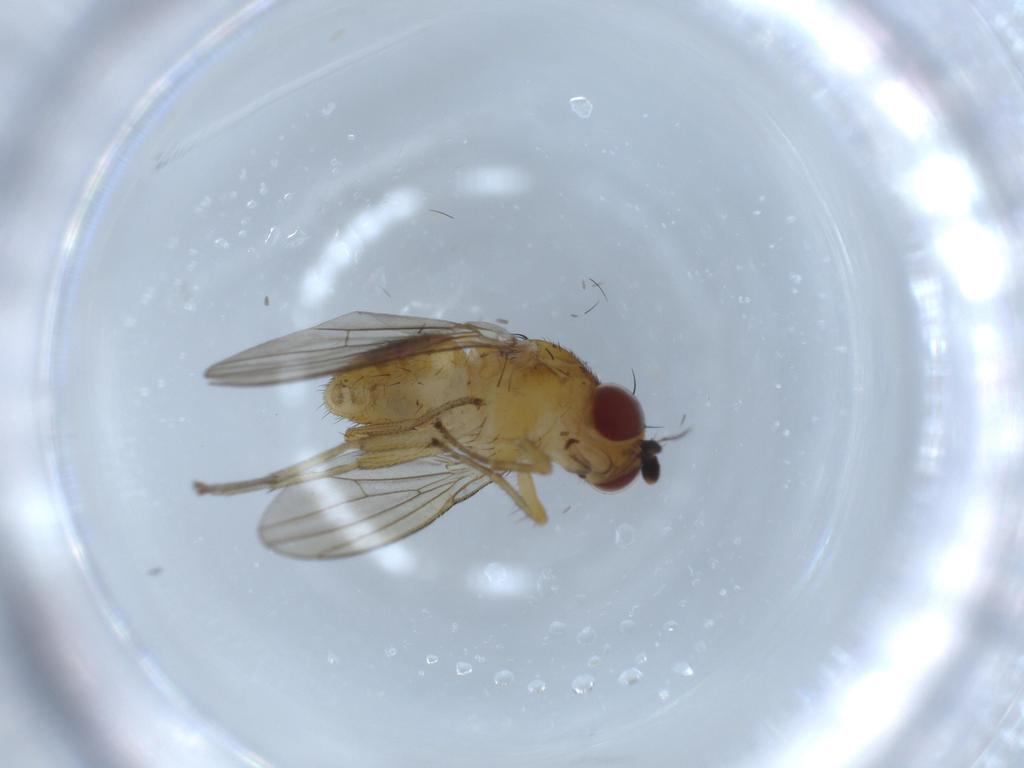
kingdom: Animalia
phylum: Arthropoda
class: Insecta
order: Diptera
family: Lauxaniidae
